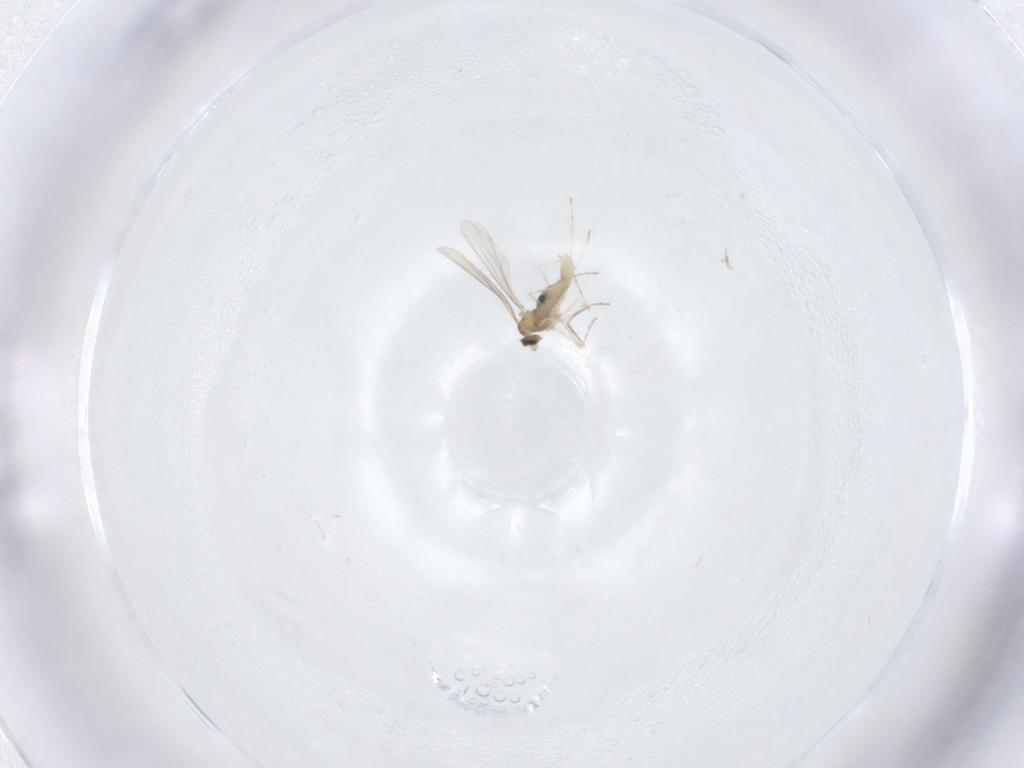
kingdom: Animalia
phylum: Arthropoda
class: Insecta
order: Diptera
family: Cecidomyiidae
